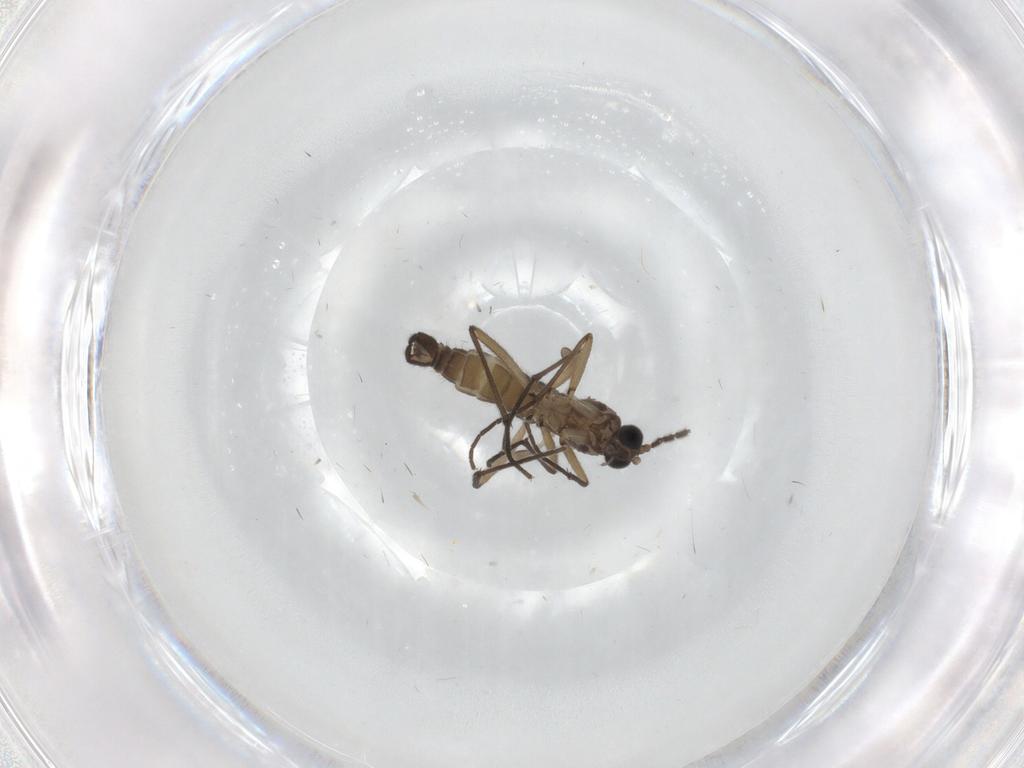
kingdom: Animalia
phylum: Arthropoda
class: Insecta
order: Diptera
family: Sciaridae
